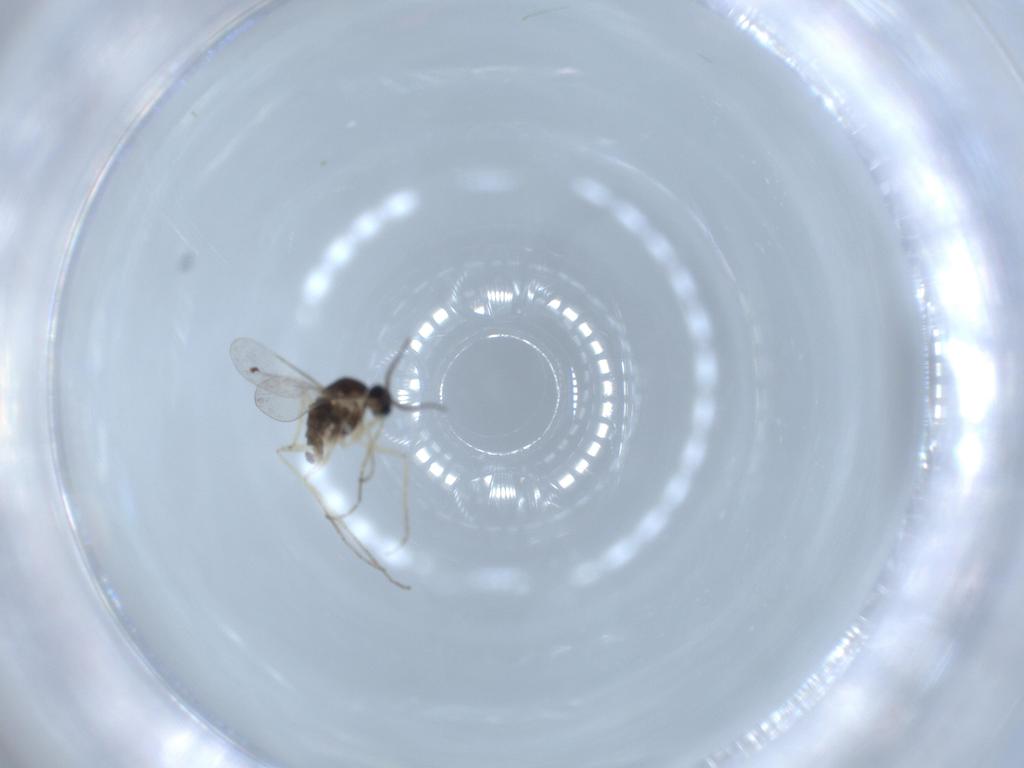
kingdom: Animalia
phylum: Arthropoda
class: Insecta
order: Diptera
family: Cecidomyiidae
